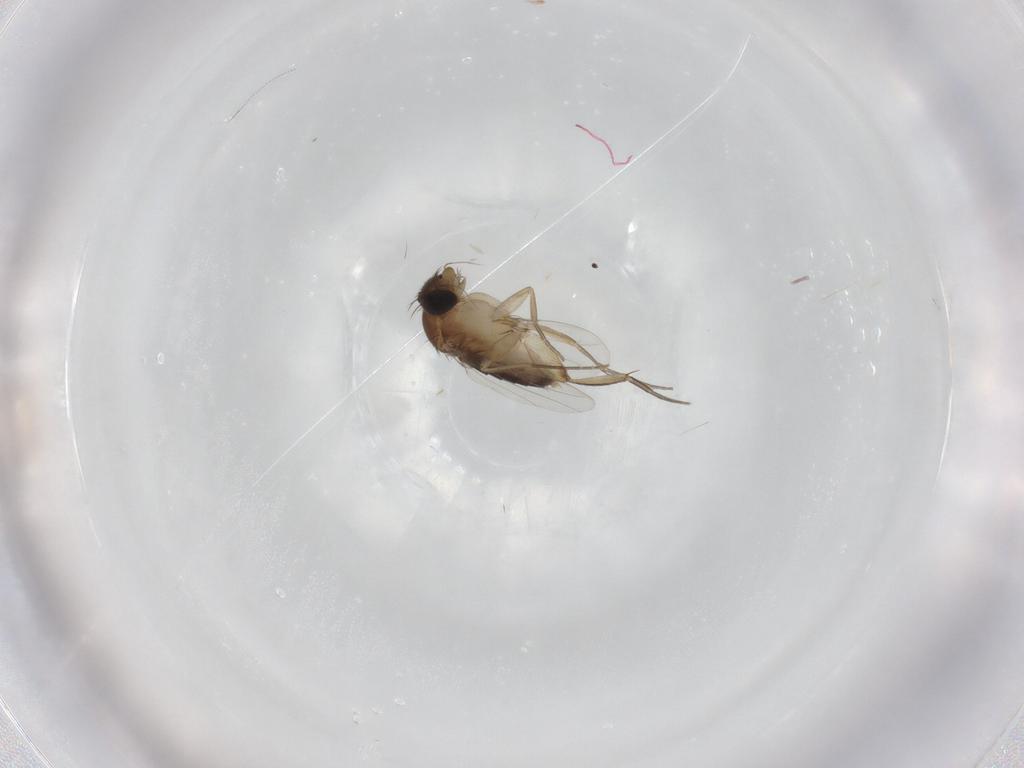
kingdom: Animalia
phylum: Arthropoda
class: Insecta
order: Diptera
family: Phoridae
